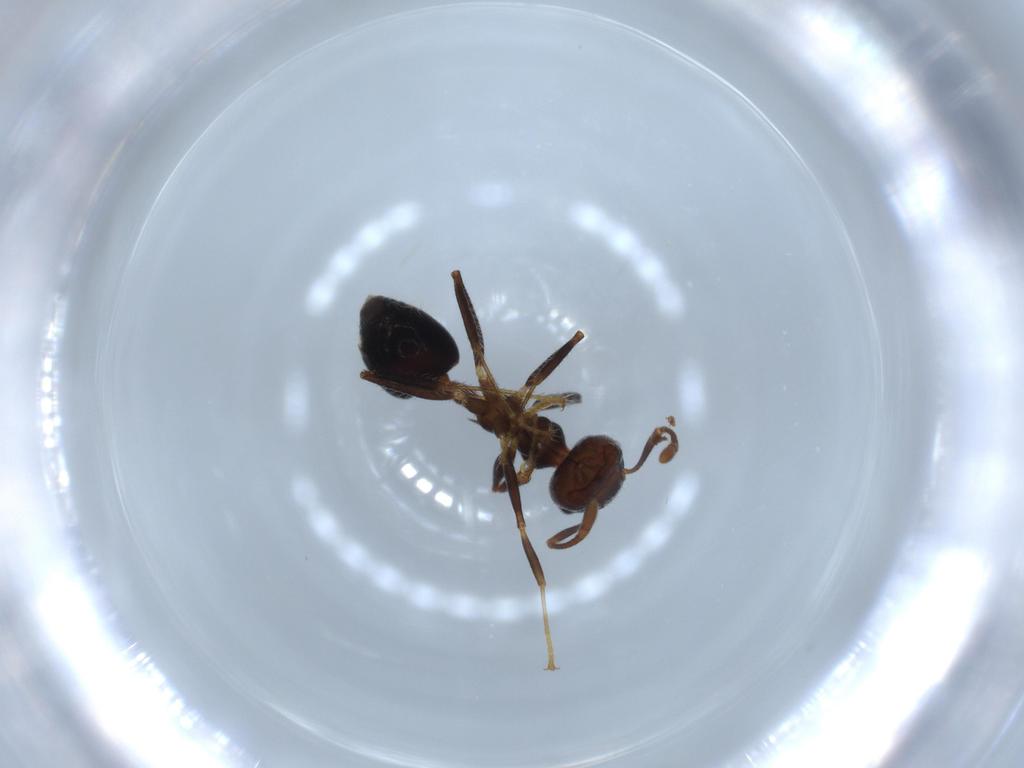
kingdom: Animalia
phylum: Arthropoda
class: Insecta
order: Hymenoptera
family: Formicidae
